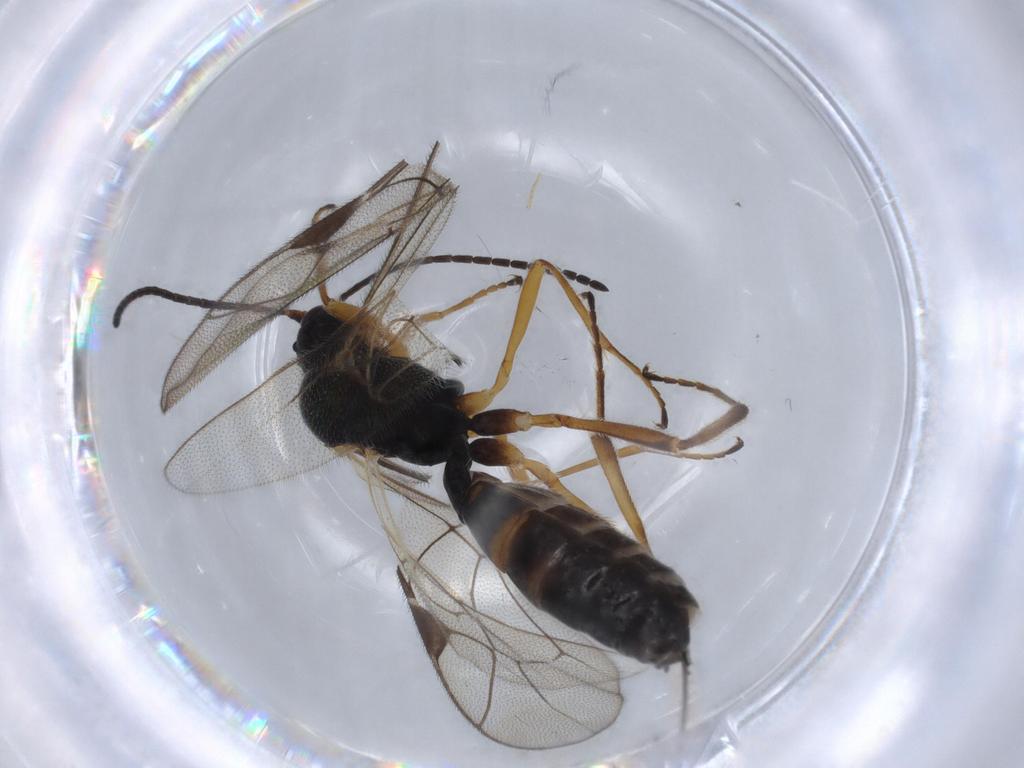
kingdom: Animalia
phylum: Arthropoda
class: Insecta
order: Hymenoptera
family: Ichneumonidae
